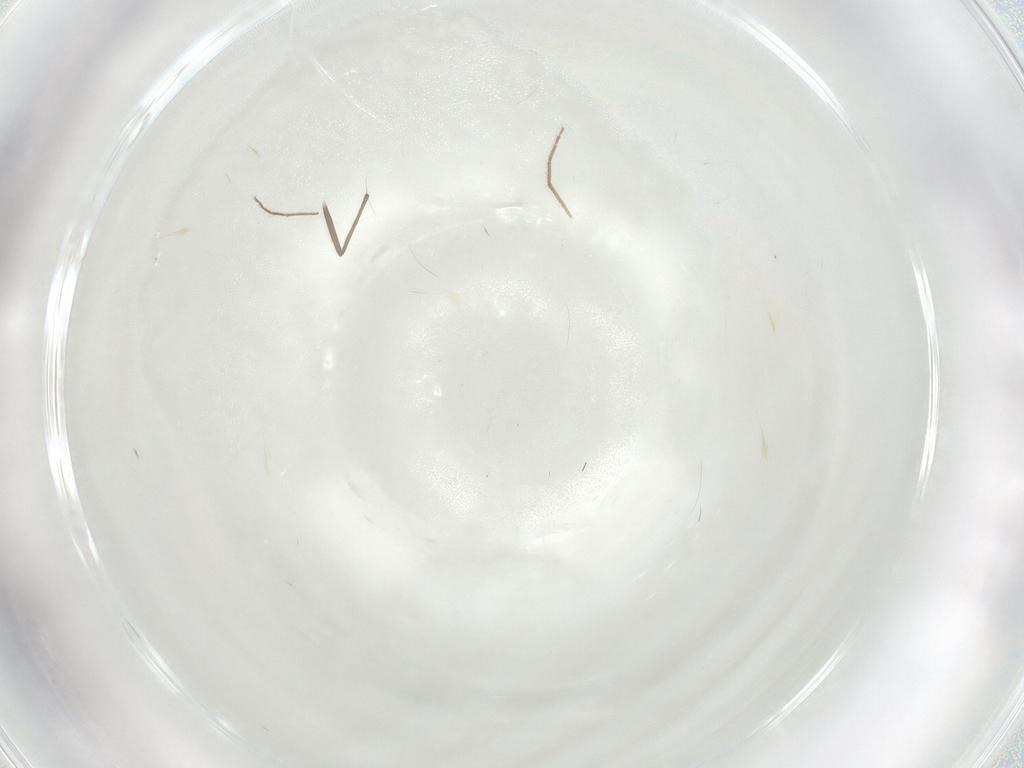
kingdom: Animalia
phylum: Arthropoda
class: Insecta
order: Hemiptera
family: Tingidae
